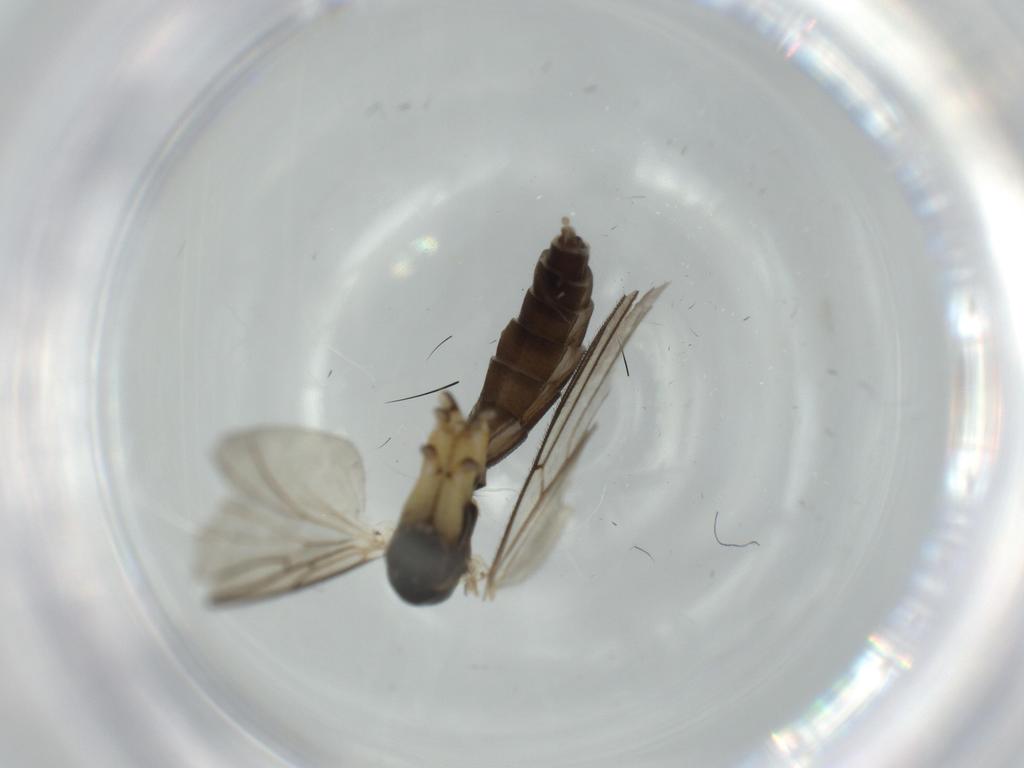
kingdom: Animalia
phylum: Arthropoda
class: Insecta
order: Diptera
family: Mycetophilidae
